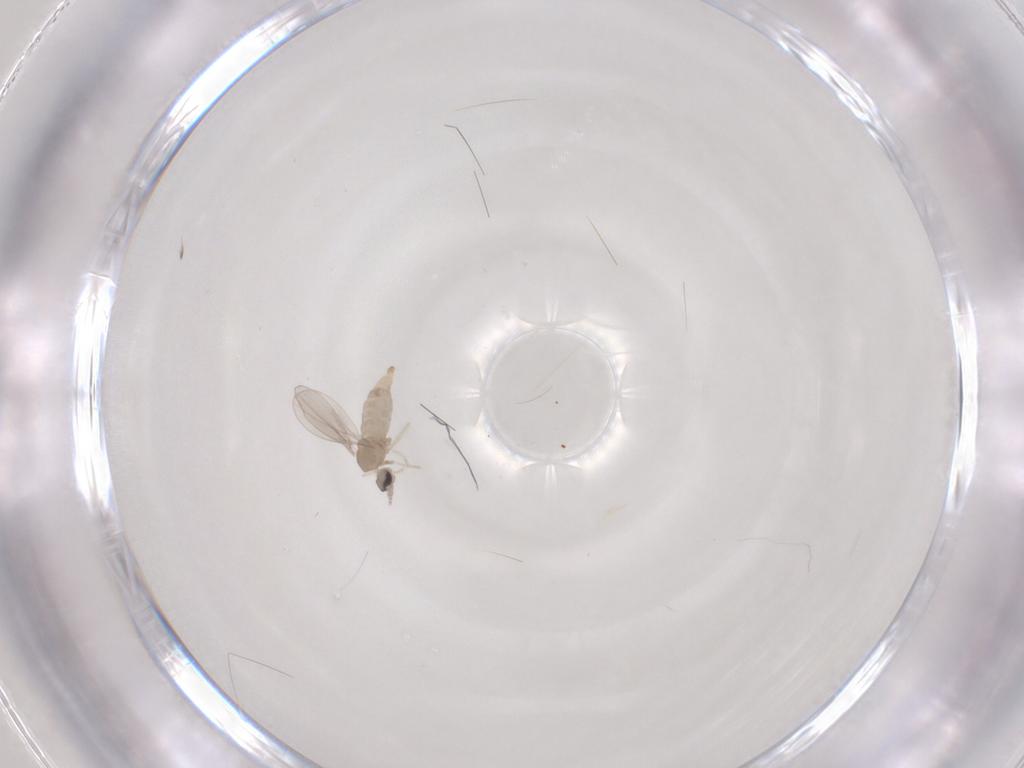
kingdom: Animalia
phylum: Arthropoda
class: Insecta
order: Diptera
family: Cecidomyiidae
